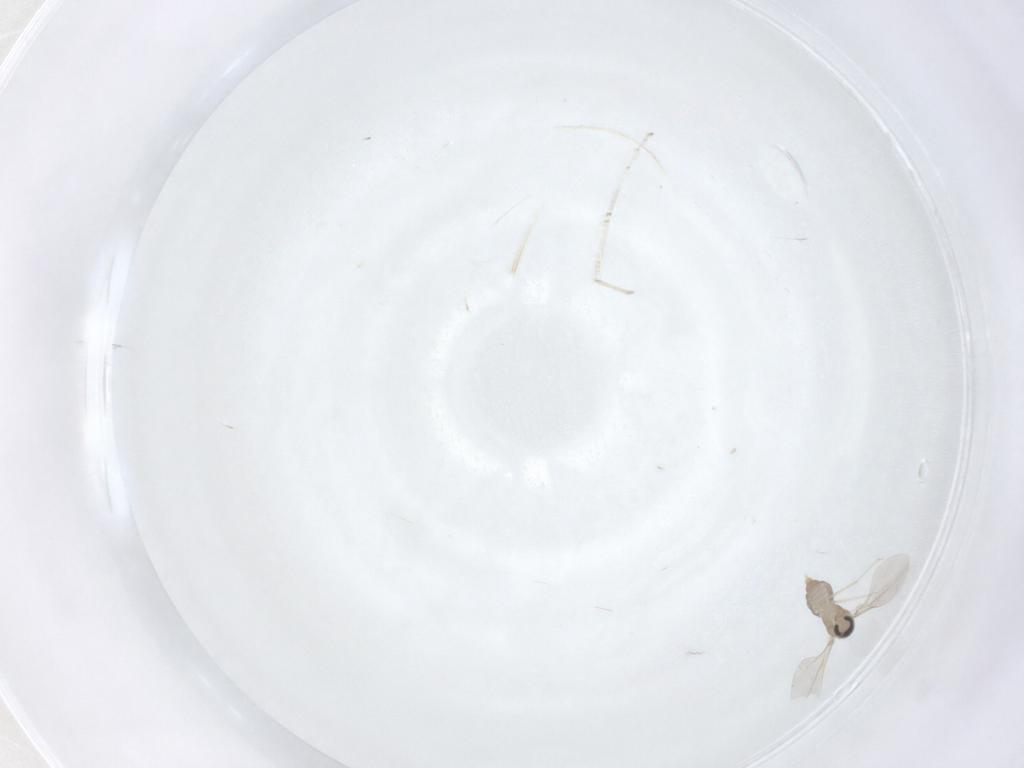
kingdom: Animalia
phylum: Arthropoda
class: Insecta
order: Diptera
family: Cecidomyiidae
